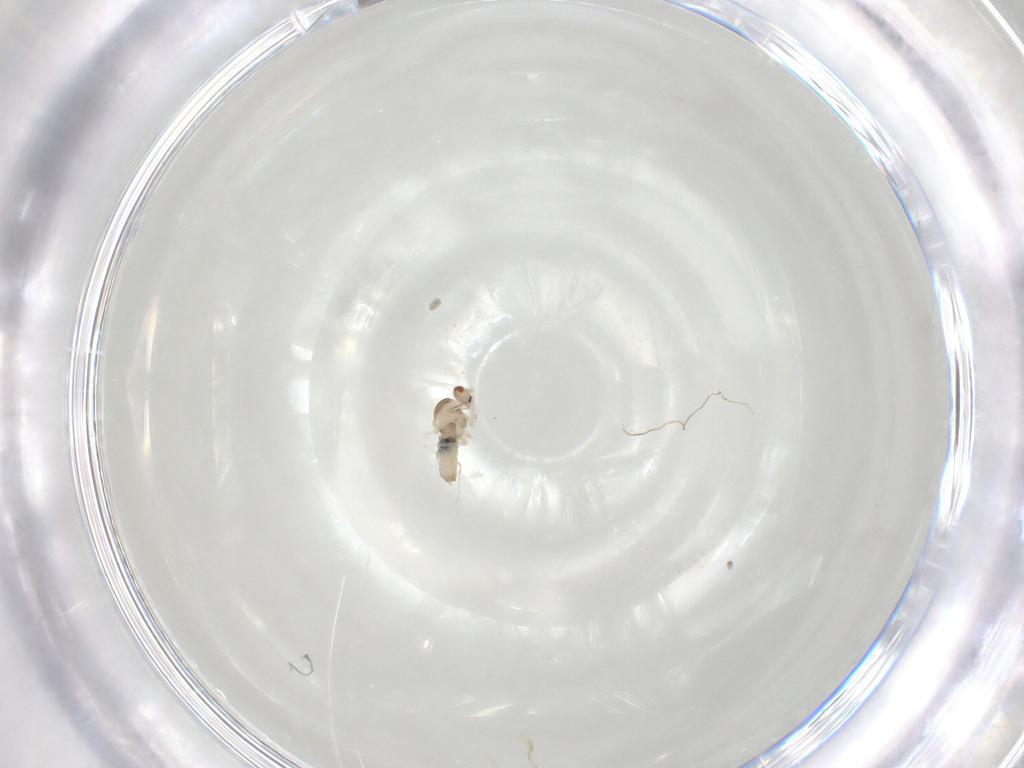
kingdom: Animalia
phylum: Arthropoda
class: Insecta
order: Diptera
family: Cecidomyiidae
